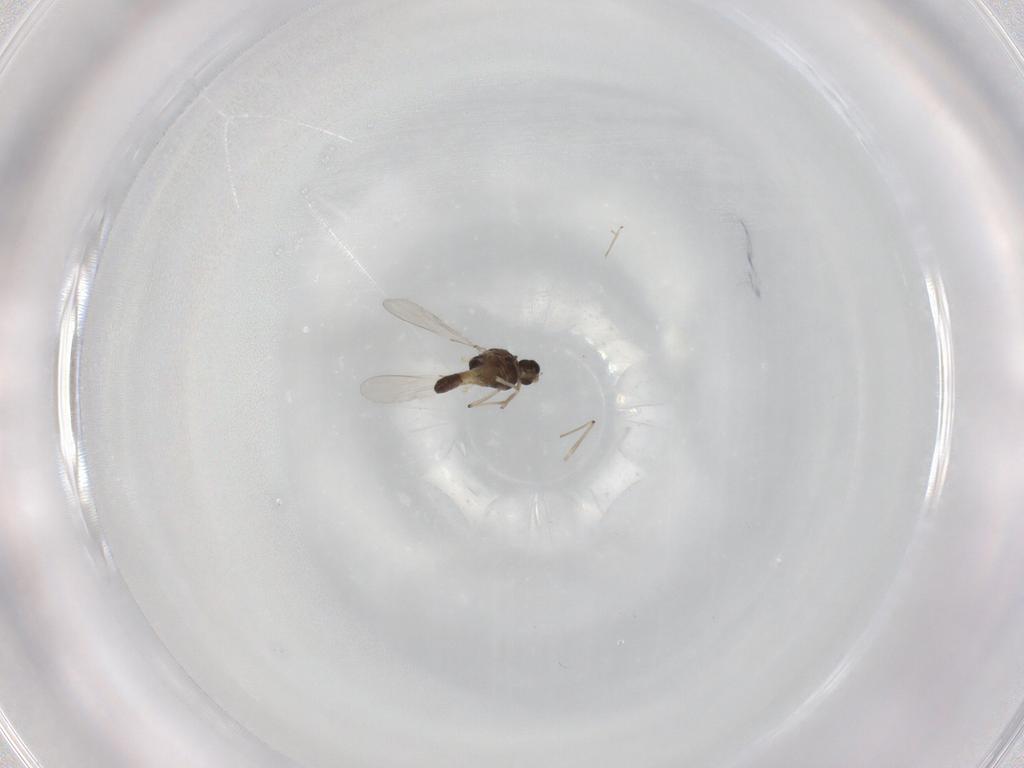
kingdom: Animalia
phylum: Arthropoda
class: Insecta
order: Diptera
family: Chironomidae
